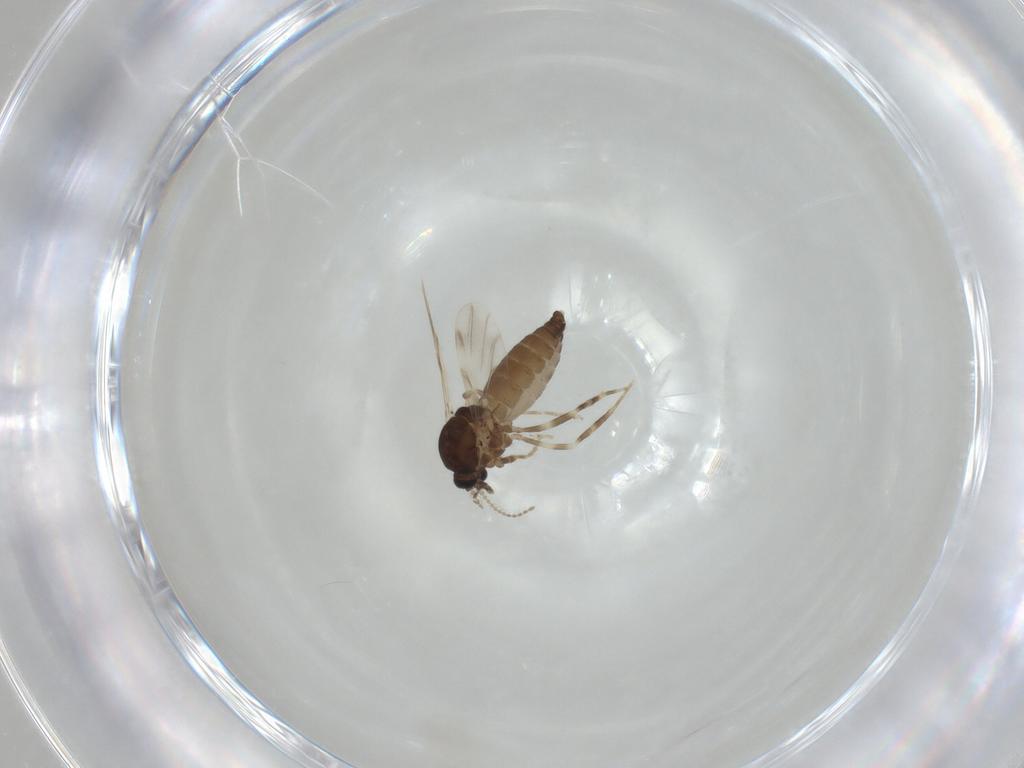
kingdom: Animalia
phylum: Arthropoda
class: Insecta
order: Diptera
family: Ceratopogonidae
